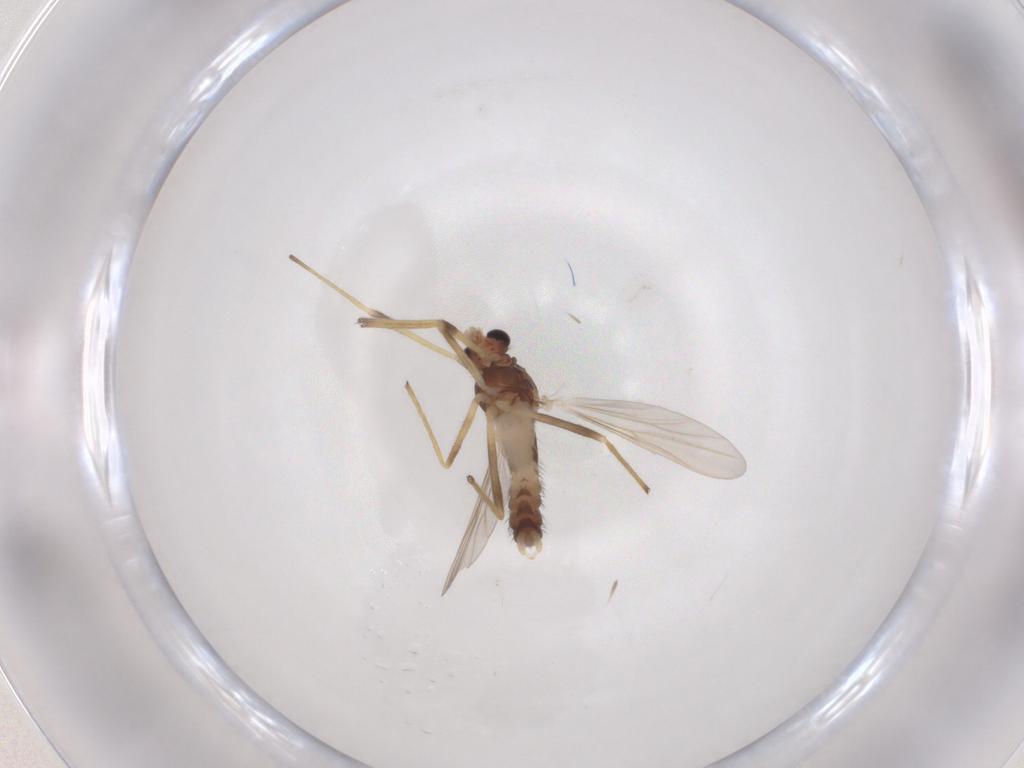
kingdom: Animalia
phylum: Arthropoda
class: Insecta
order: Diptera
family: Chironomidae
